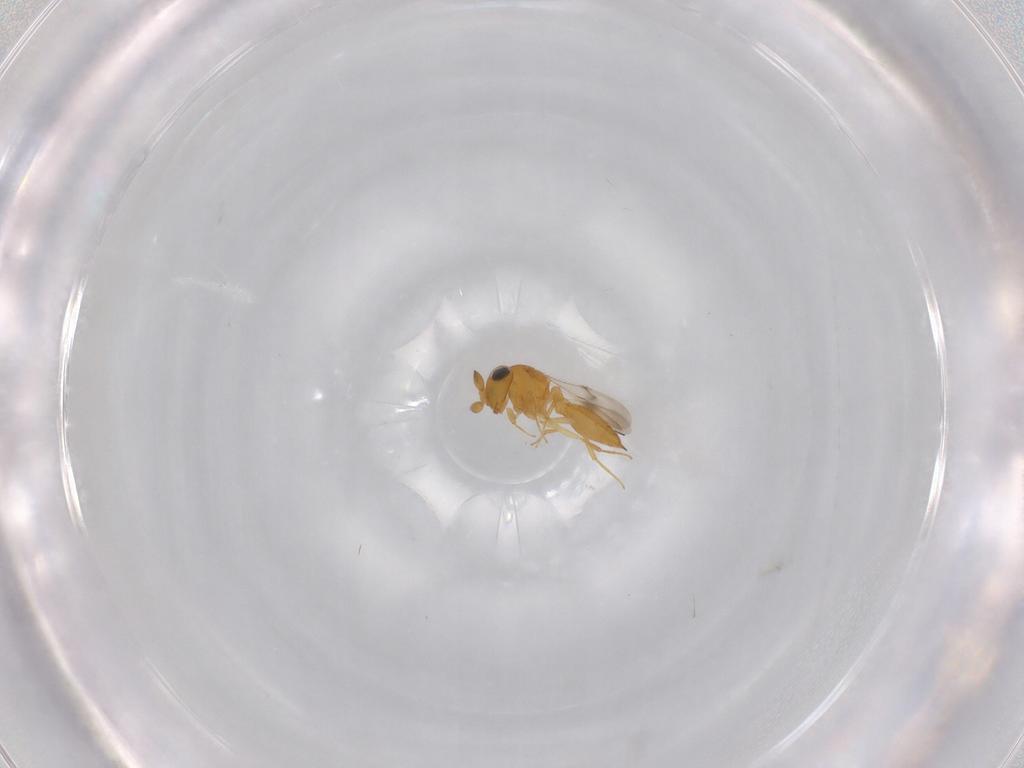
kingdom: Animalia
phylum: Arthropoda
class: Insecta
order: Hymenoptera
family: Scelionidae
